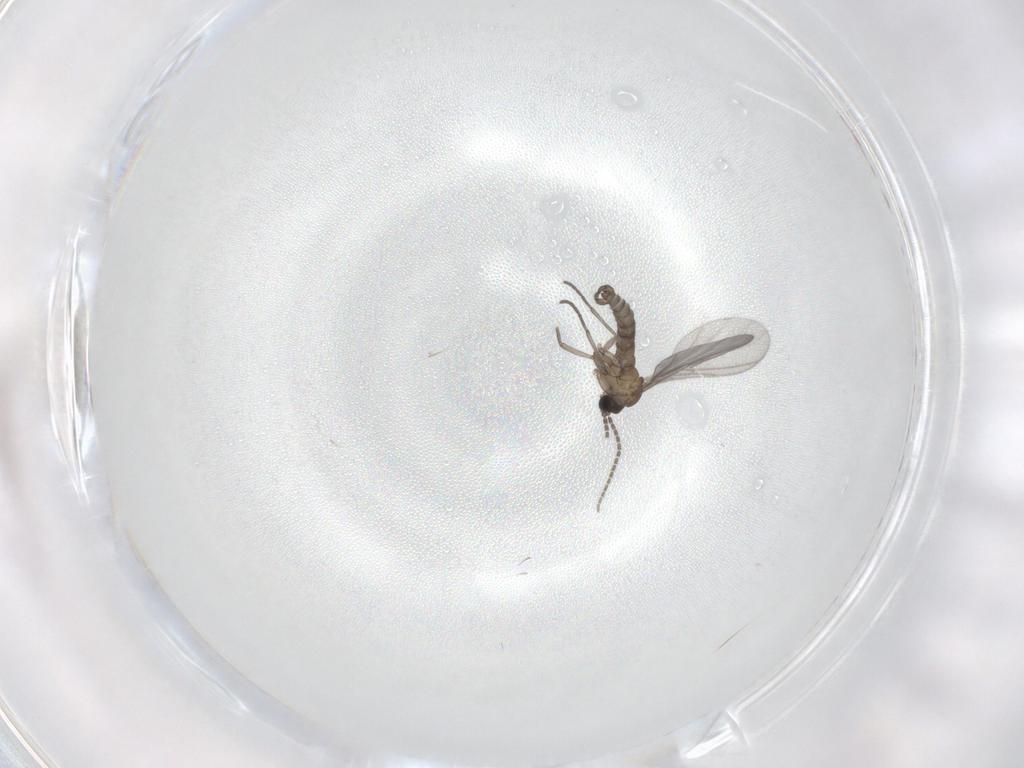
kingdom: Animalia
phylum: Arthropoda
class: Insecta
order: Diptera
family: Sciaridae
